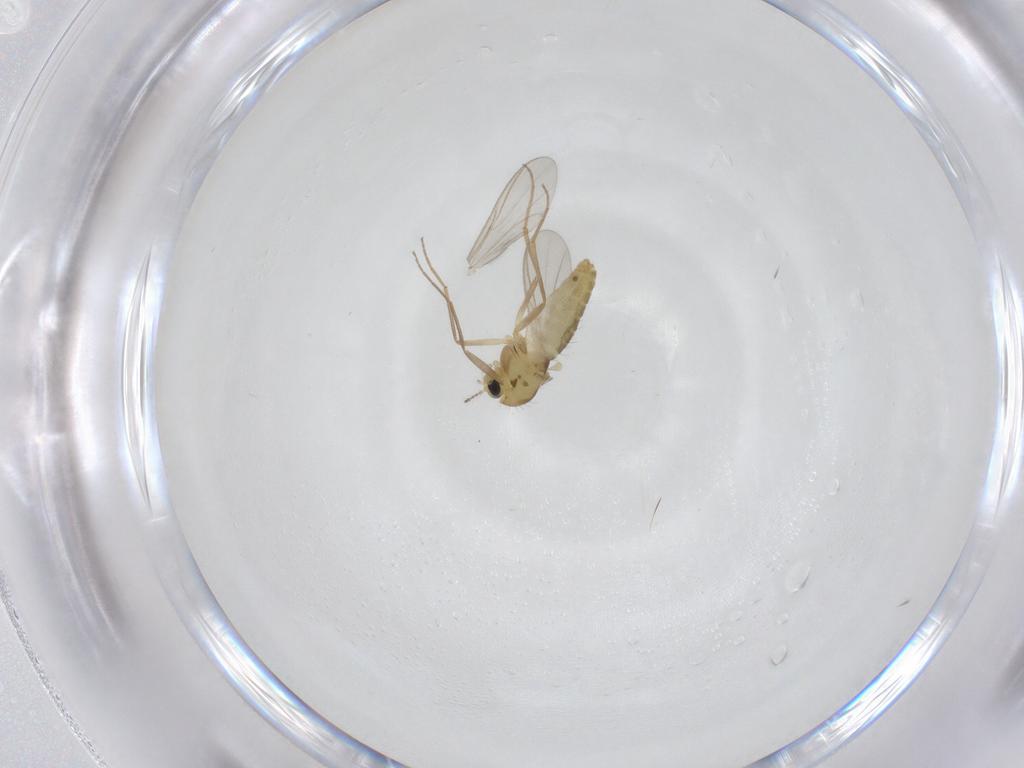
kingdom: Animalia
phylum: Arthropoda
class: Insecta
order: Diptera
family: Chironomidae
